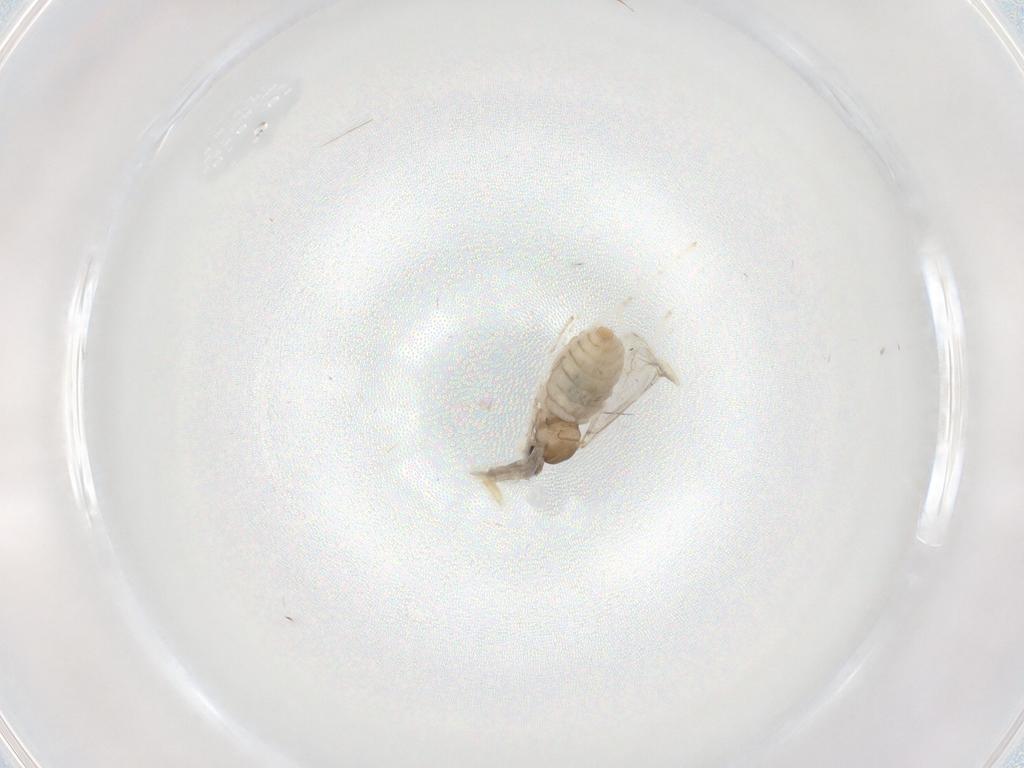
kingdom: Animalia
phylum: Arthropoda
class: Insecta
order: Diptera
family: Cecidomyiidae
